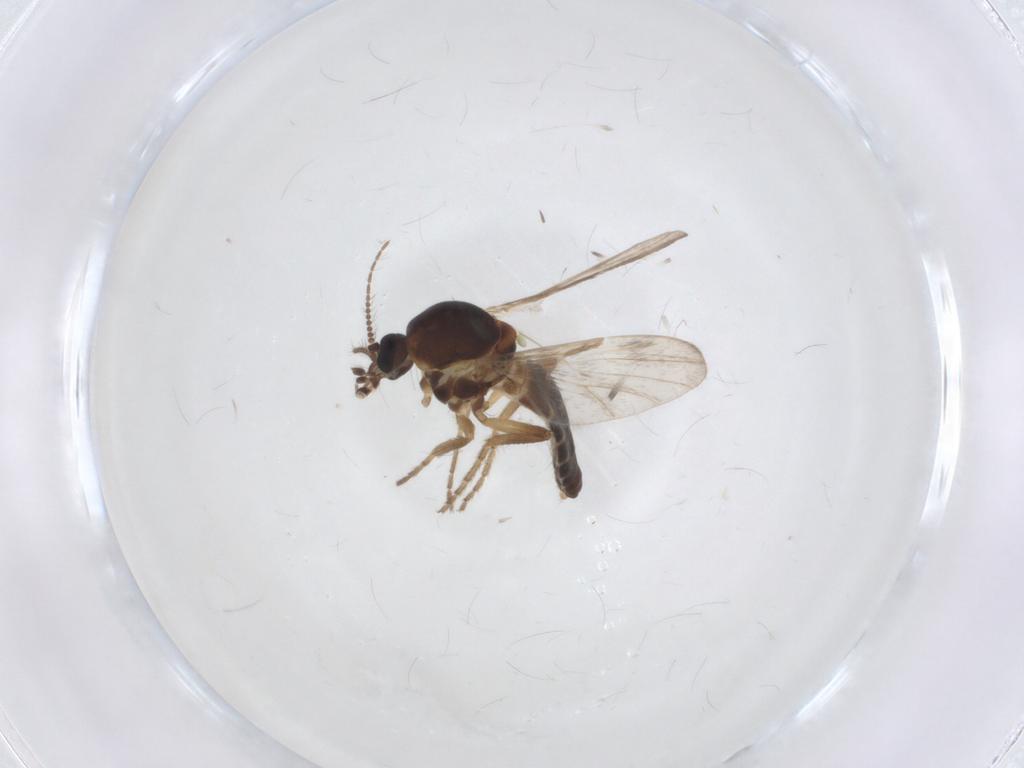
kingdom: Animalia
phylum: Arthropoda
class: Insecta
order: Diptera
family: Ceratopogonidae
